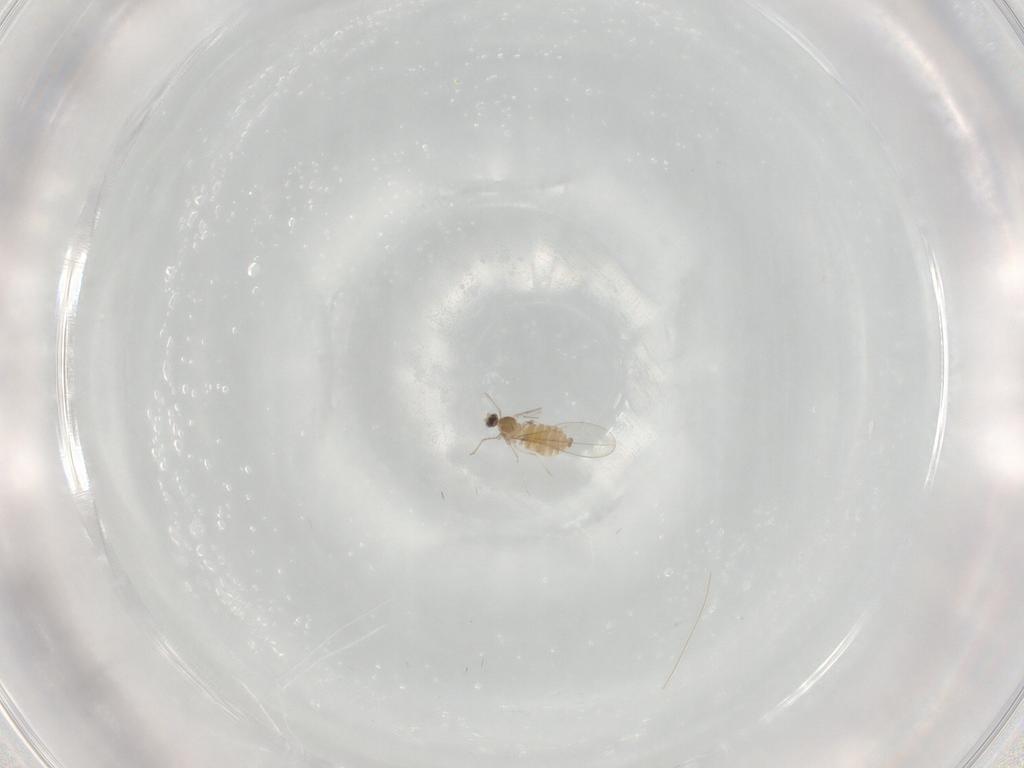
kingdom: Animalia
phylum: Arthropoda
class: Insecta
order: Diptera
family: Cecidomyiidae
